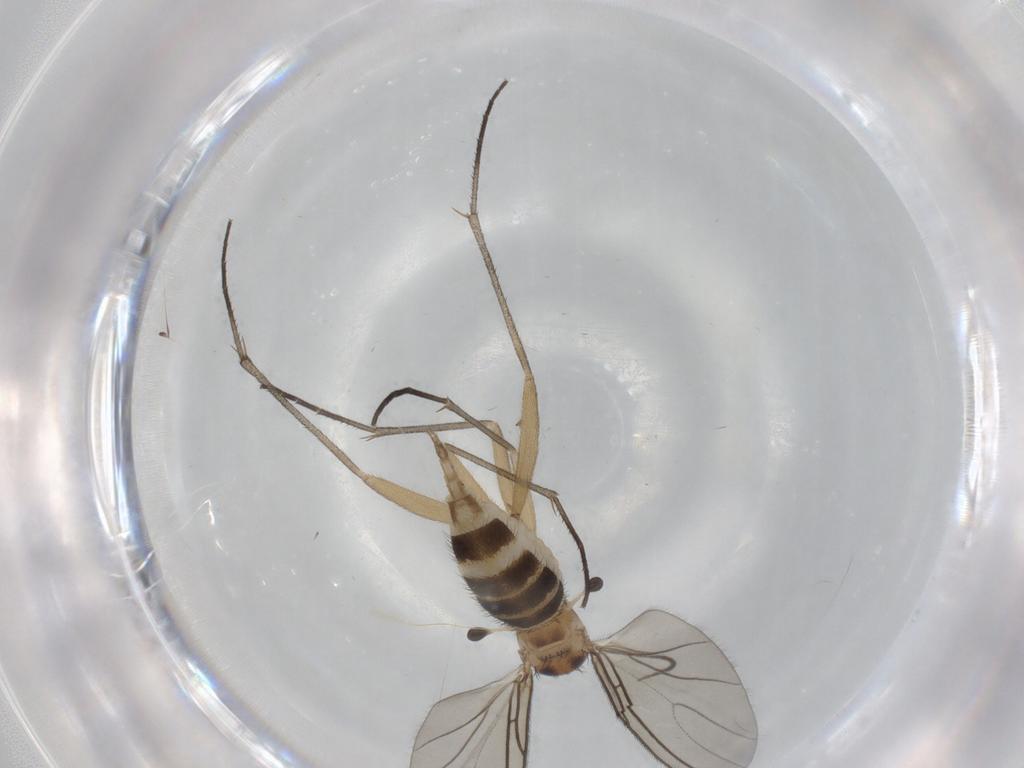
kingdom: Animalia
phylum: Arthropoda
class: Insecta
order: Diptera
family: Sciaridae
